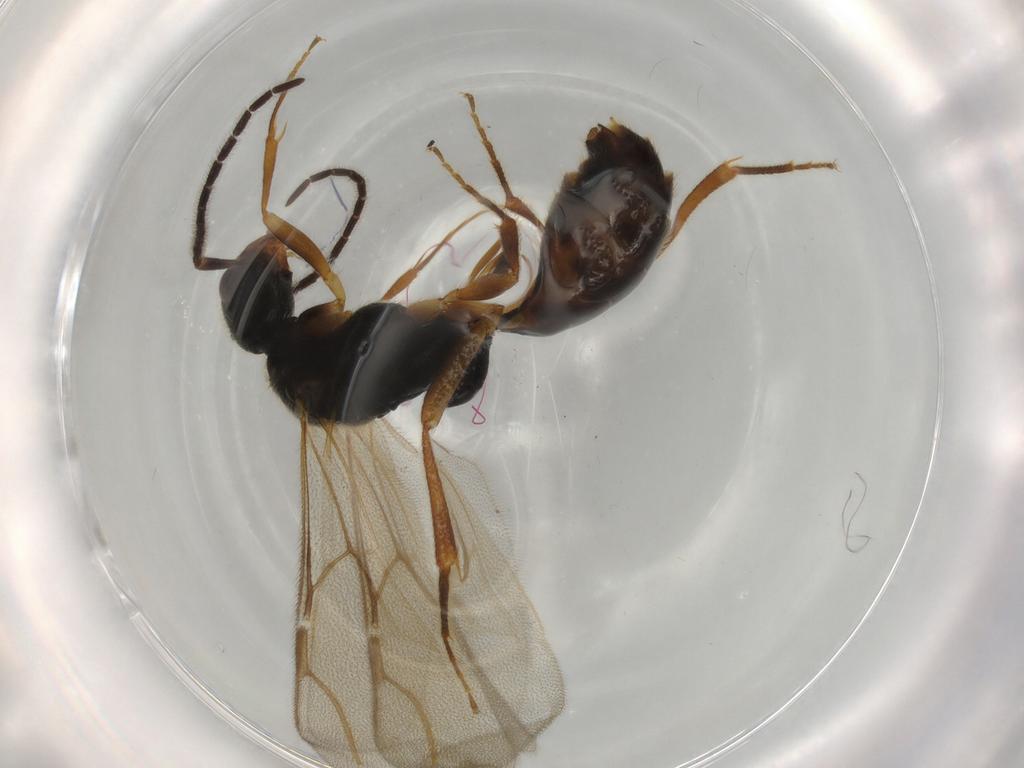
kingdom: Animalia
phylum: Arthropoda
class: Insecta
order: Hymenoptera
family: Bethylidae
